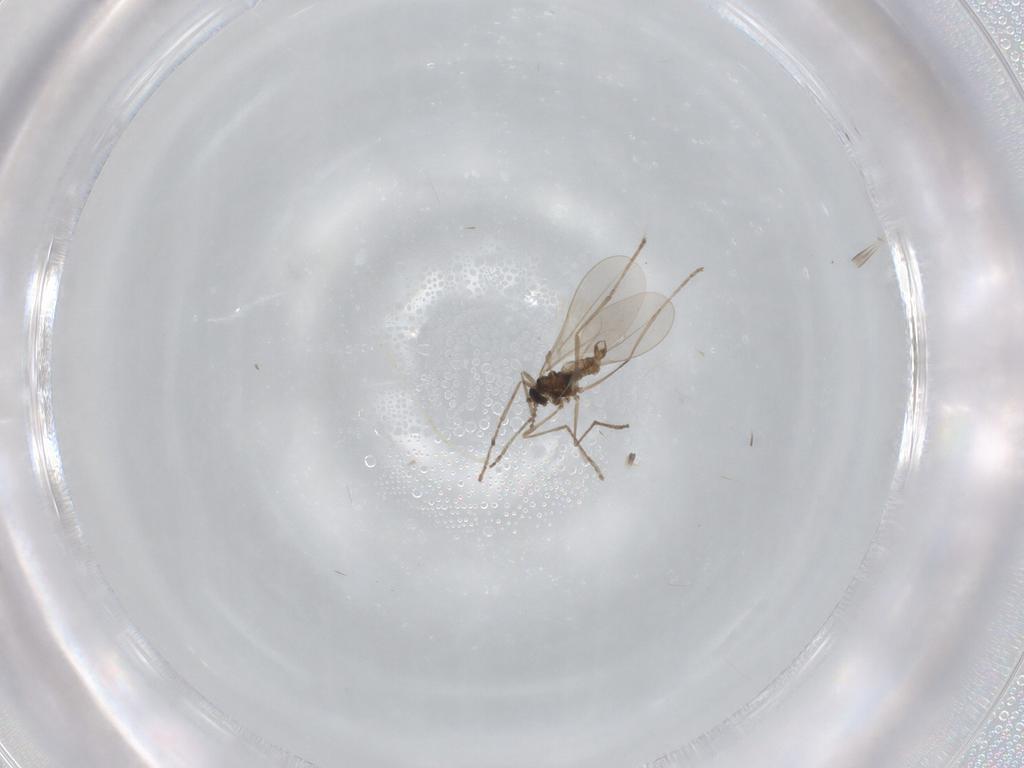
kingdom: Animalia
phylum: Arthropoda
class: Insecta
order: Diptera
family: Cecidomyiidae
